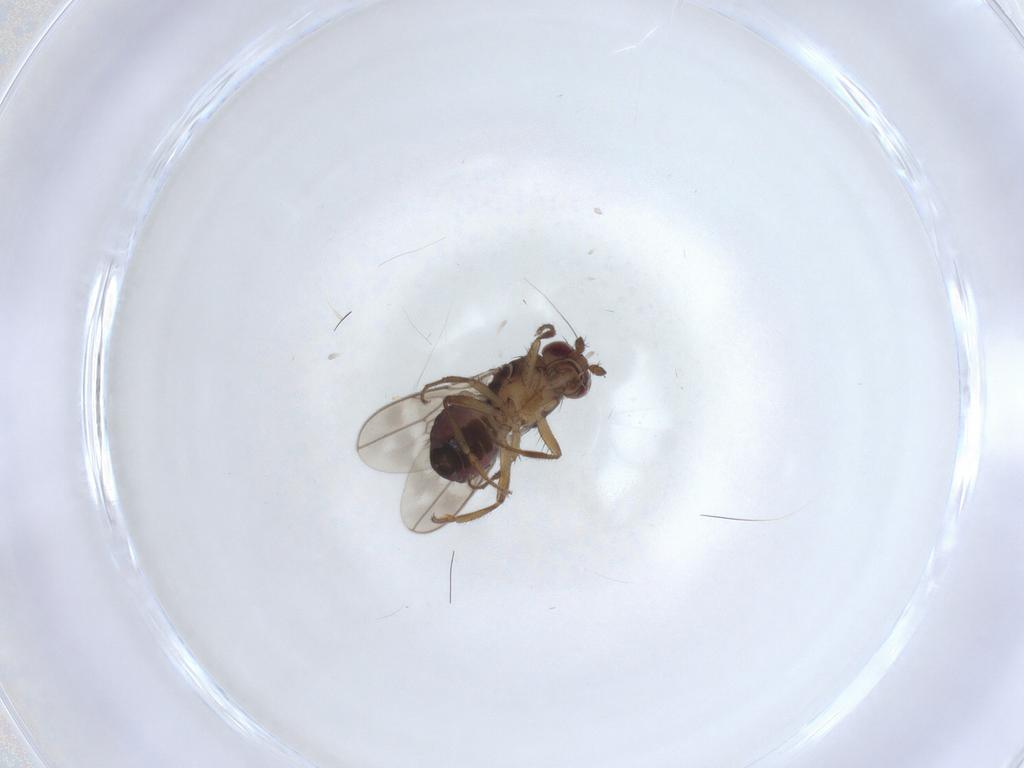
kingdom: Animalia
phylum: Arthropoda
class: Insecta
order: Diptera
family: Sphaeroceridae
